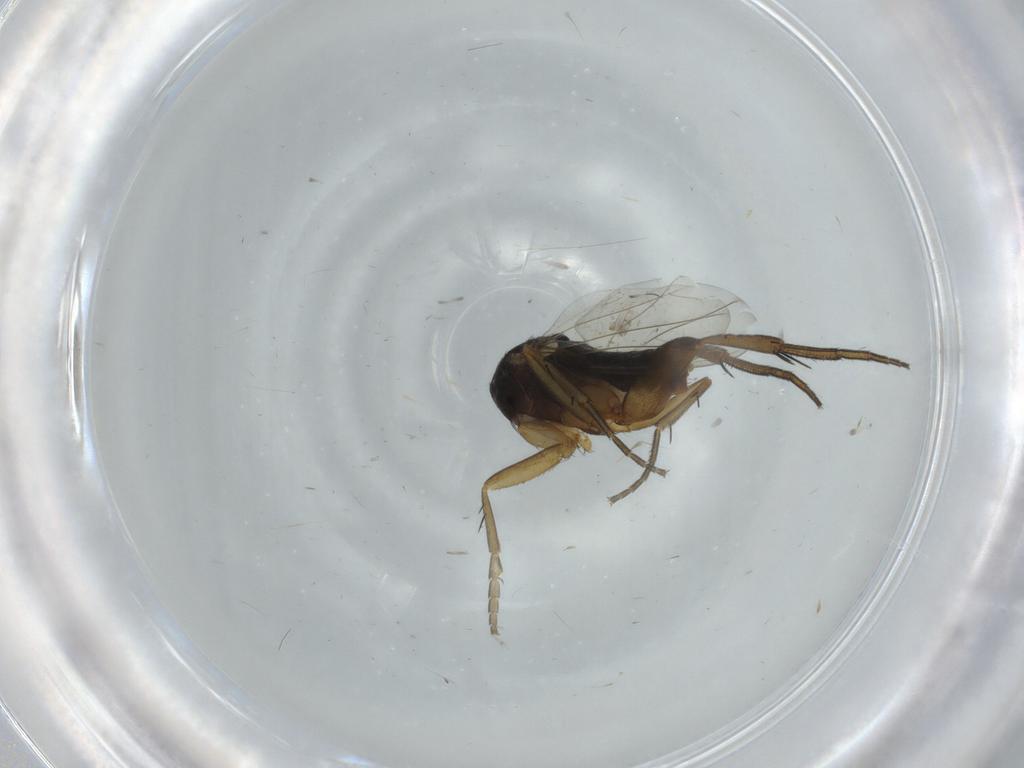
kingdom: Animalia
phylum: Arthropoda
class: Insecta
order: Diptera
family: Phoridae
